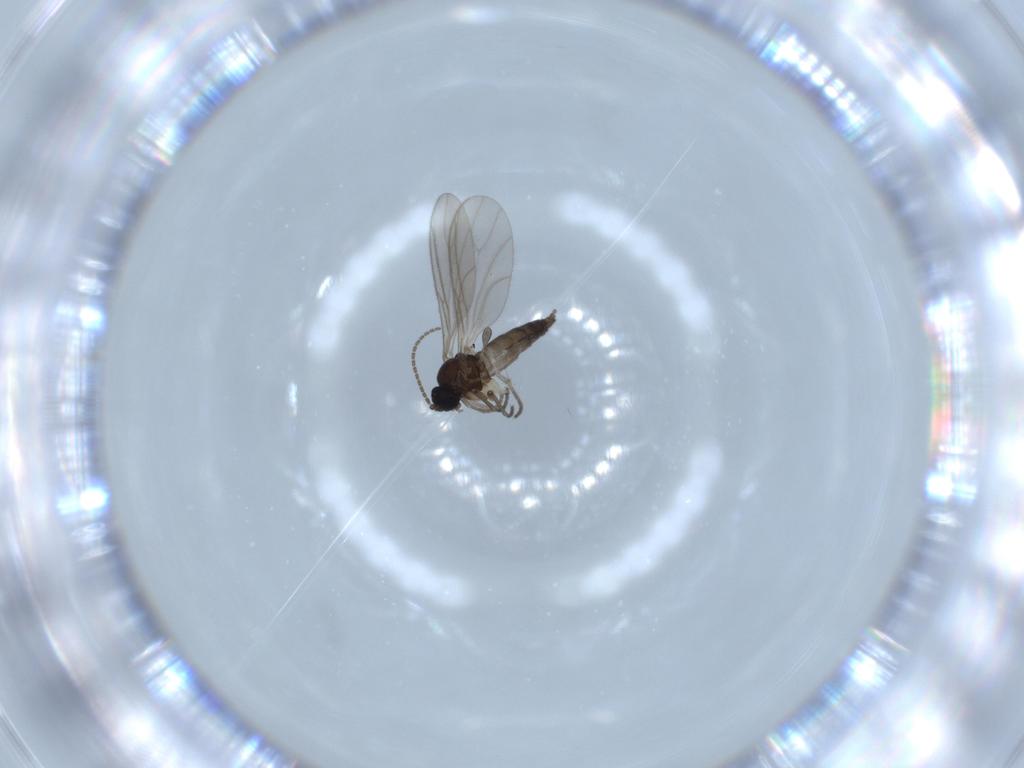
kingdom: Animalia
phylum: Arthropoda
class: Insecta
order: Diptera
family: Sciaridae
